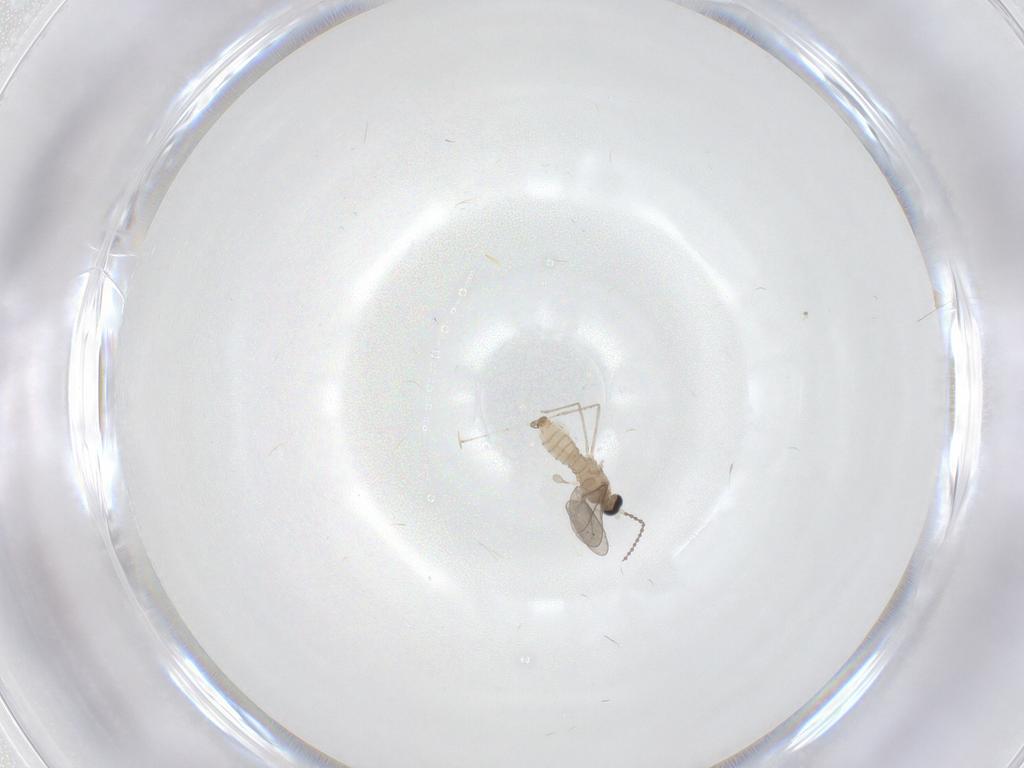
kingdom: Animalia
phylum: Arthropoda
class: Insecta
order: Diptera
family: Cecidomyiidae
